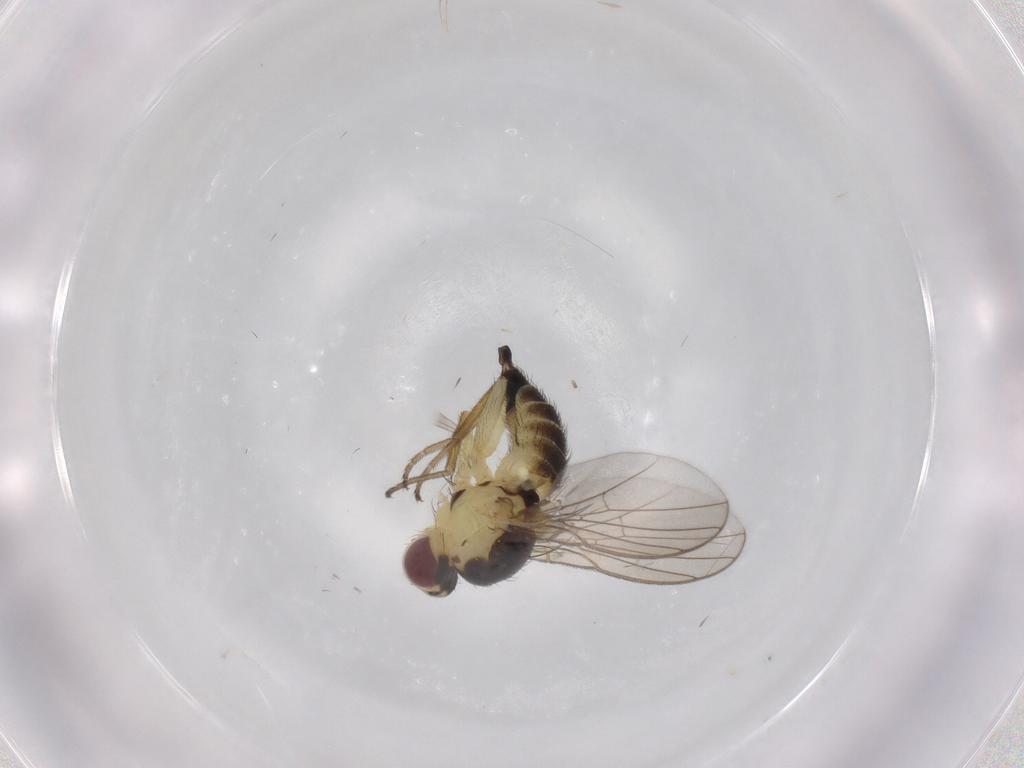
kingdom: Animalia
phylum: Arthropoda
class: Insecta
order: Diptera
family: Agromyzidae
